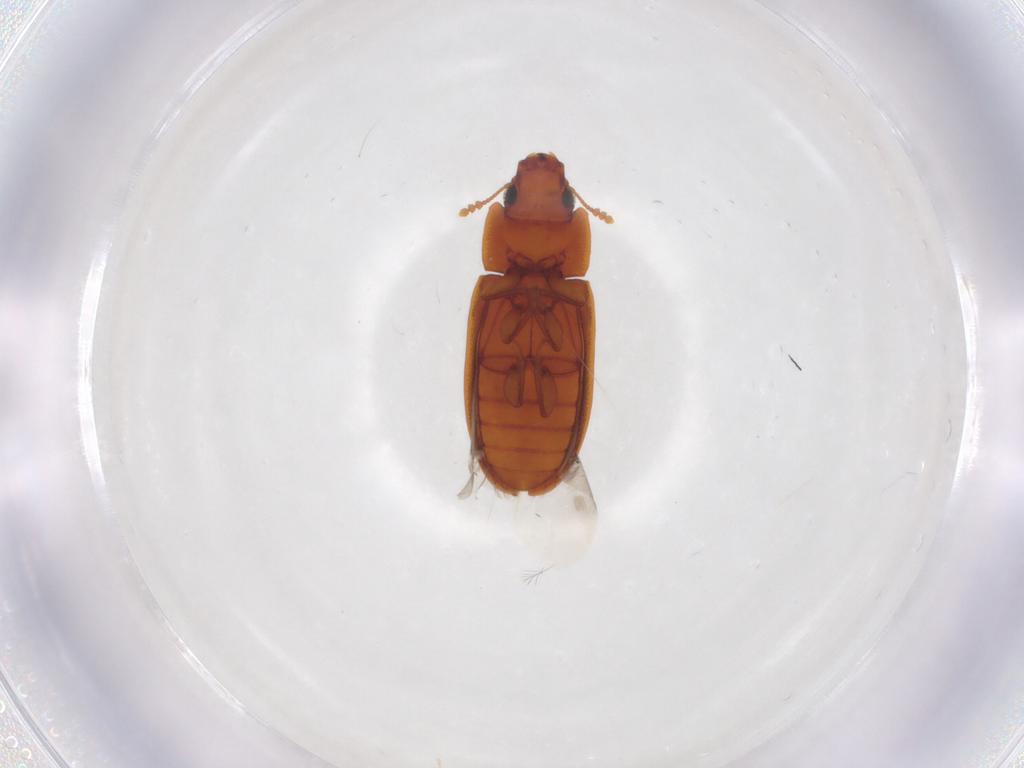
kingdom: Animalia
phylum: Arthropoda
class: Insecta
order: Coleoptera
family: Laemophloeidae
